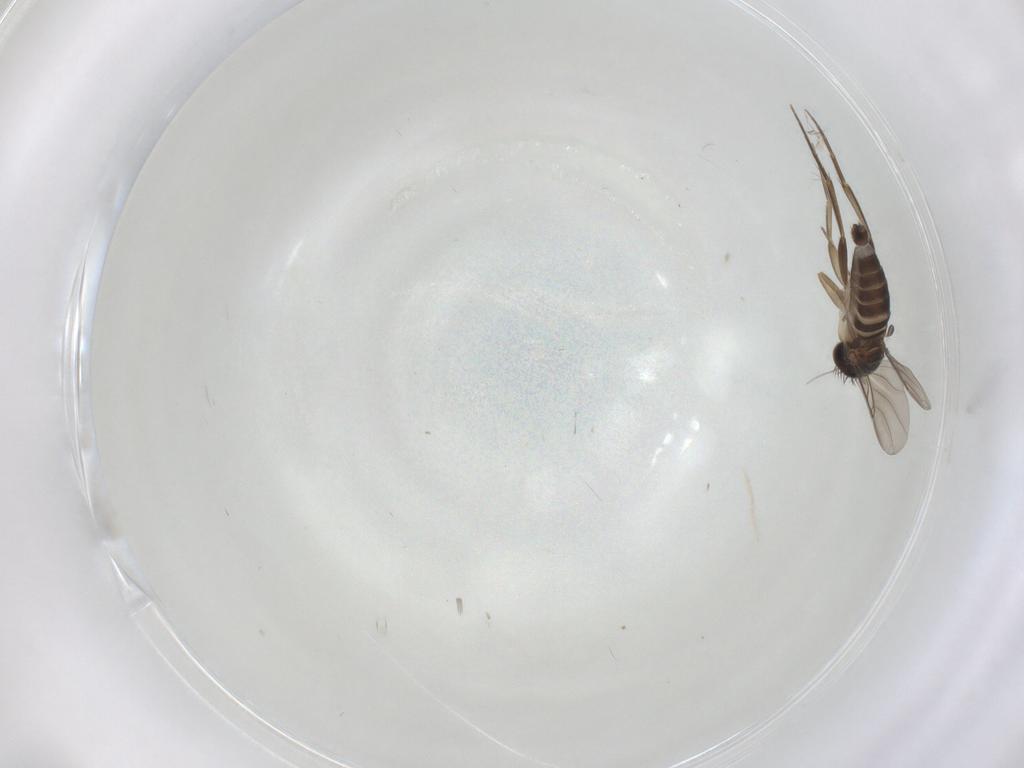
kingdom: Animalia
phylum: Arthropoda
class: Insecta
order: Diptera
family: Phoridae
